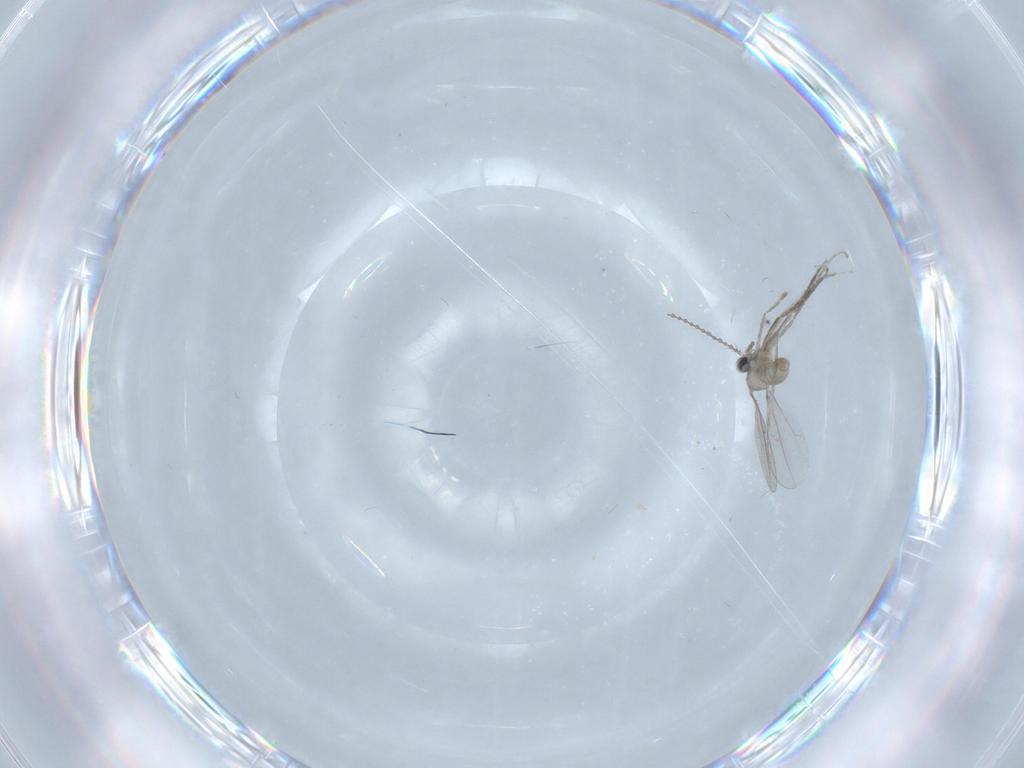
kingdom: Animalia
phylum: Arthropoda
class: Insecta
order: Diptera
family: Cecidomyiidae
